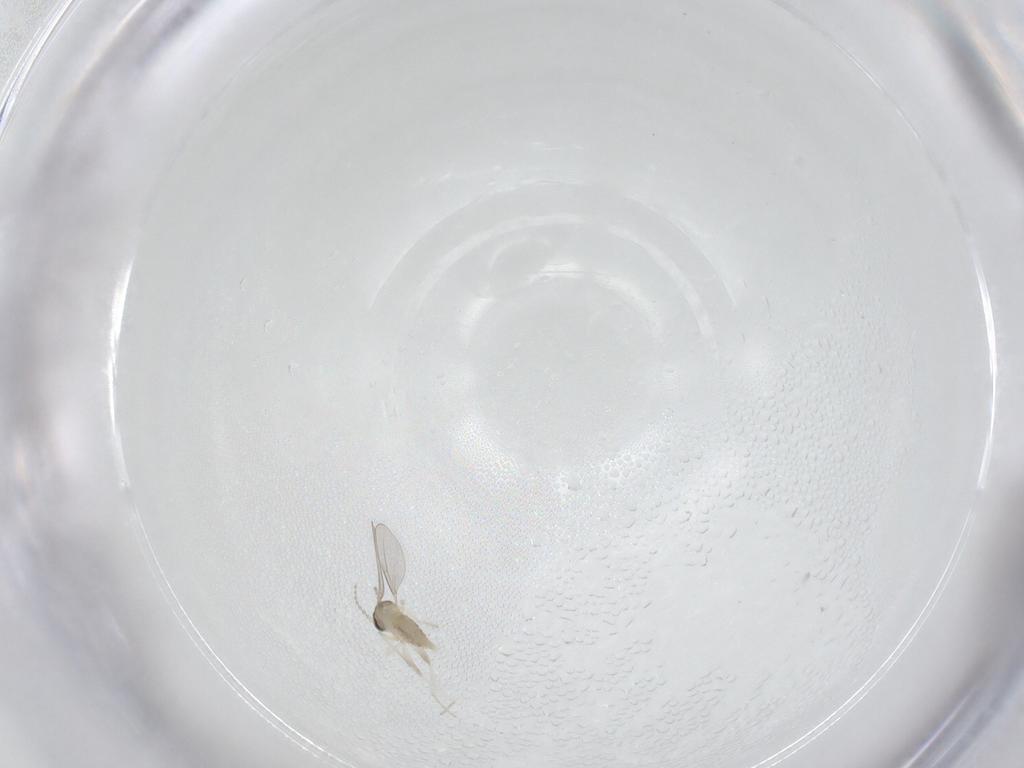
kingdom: Animalia
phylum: Arthropoda
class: Insecta
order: Diptera
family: Cecidomyiidae
